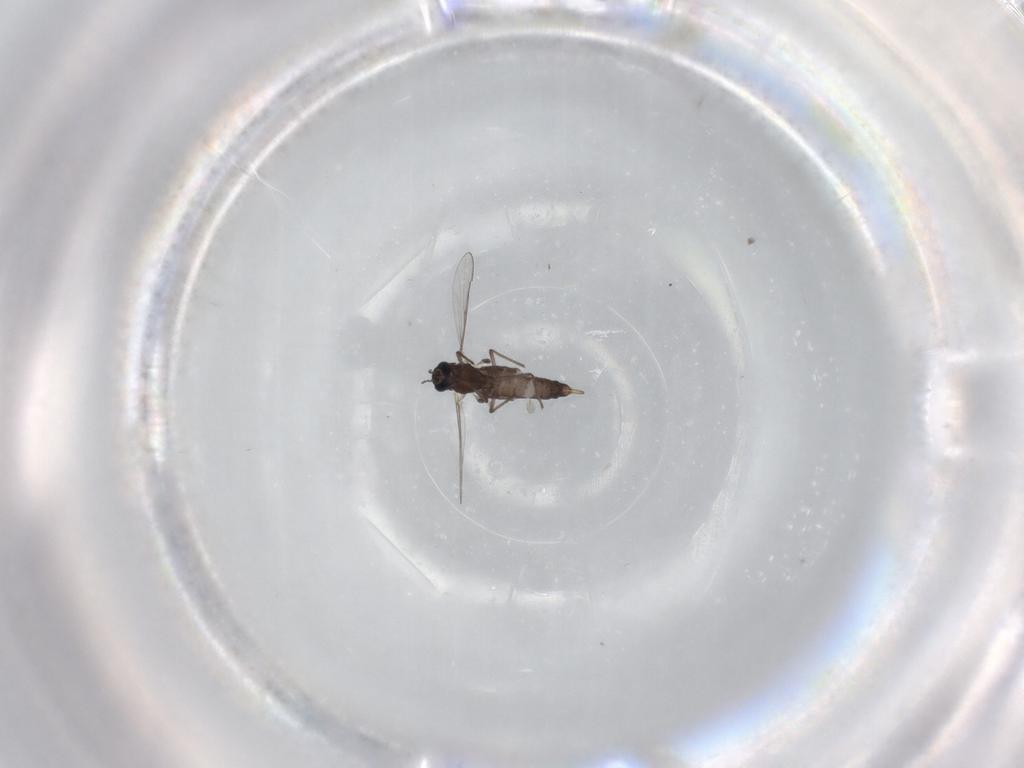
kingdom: Animalia
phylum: Arthropoda
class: Insecta
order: Diptera
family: Chironomidae
